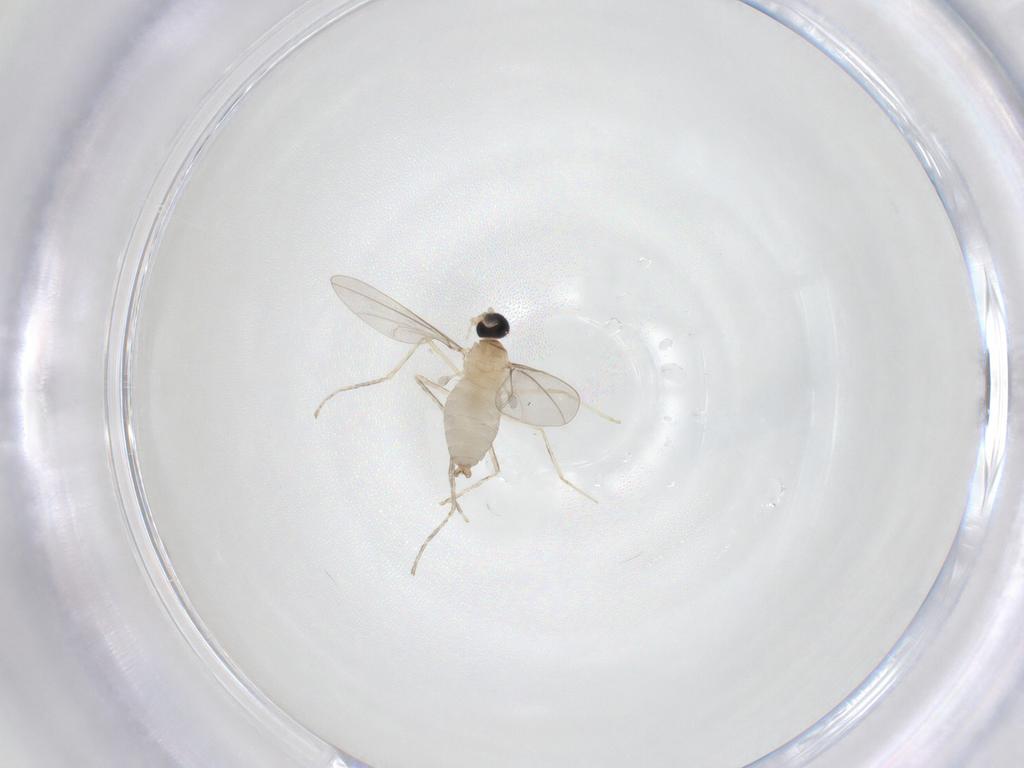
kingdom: Animalia
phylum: Arthropoda
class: Insecta
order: Diptera
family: Cecidomyiidae
